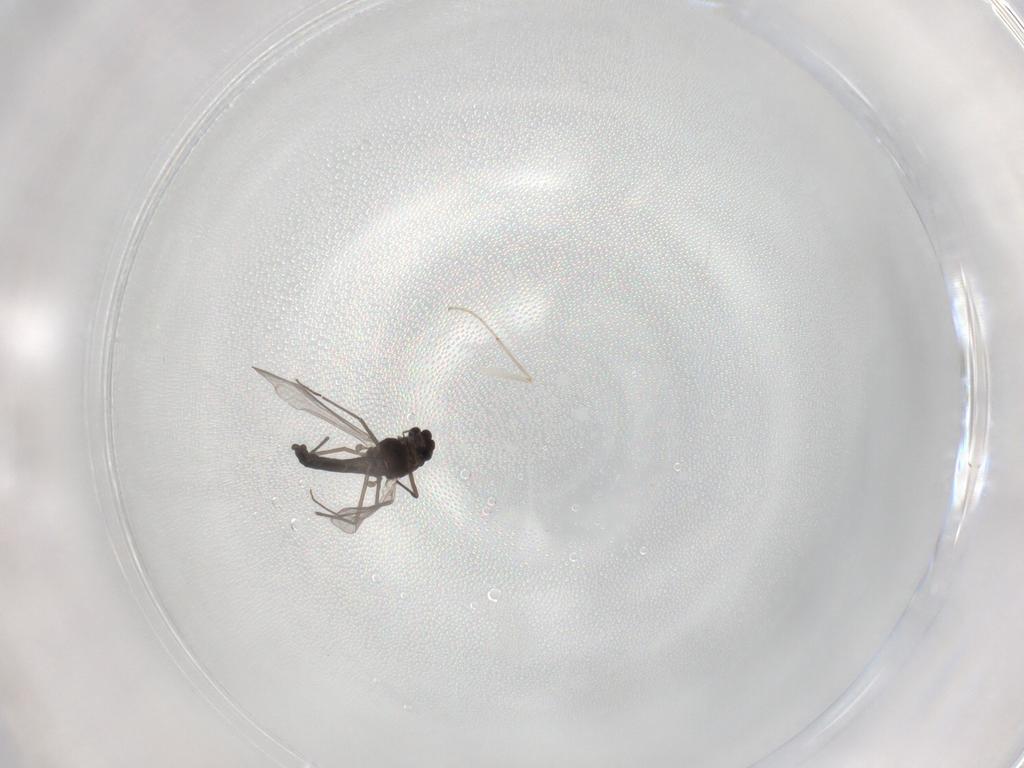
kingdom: Animalia
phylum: Arthropoda
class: Insecta
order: Diptera
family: Chironomidae
